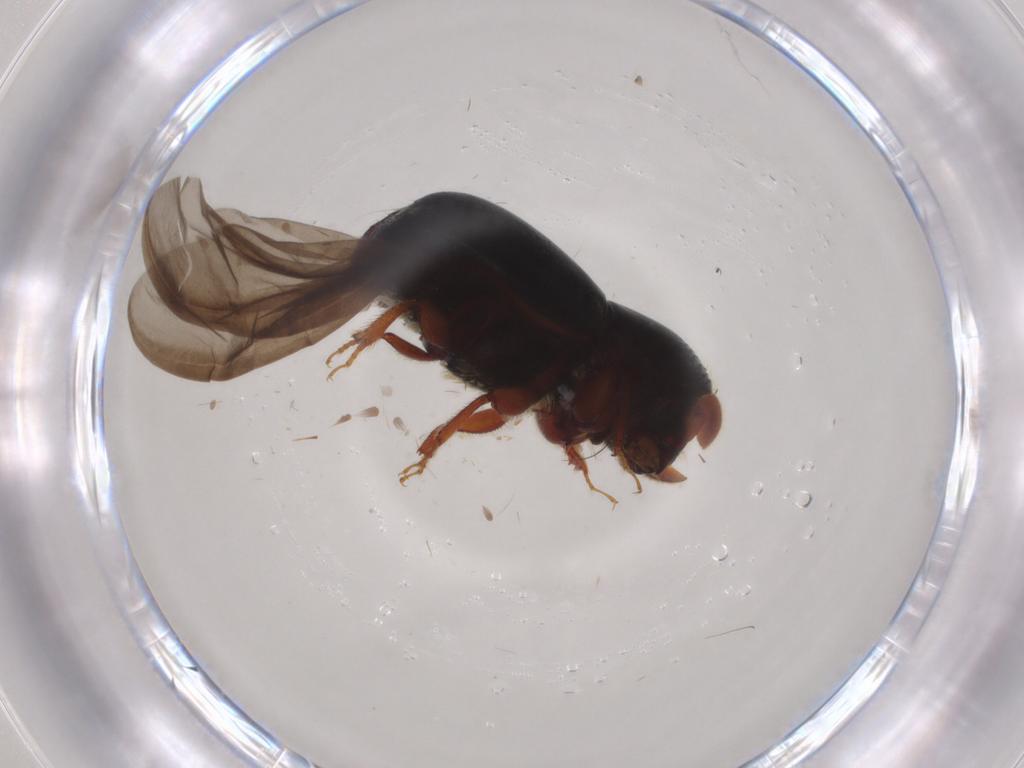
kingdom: Animalia
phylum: Arthropoda
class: Insecta
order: Coleoptera
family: Curculionidae
